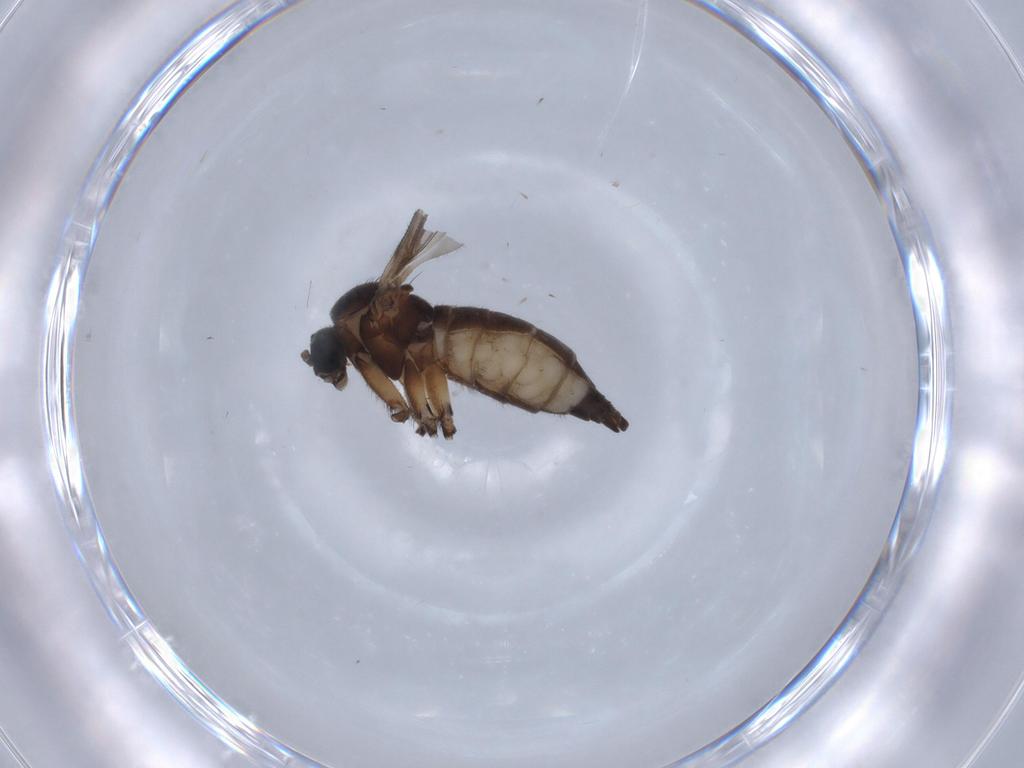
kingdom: Animalia
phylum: Arthropoda
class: Insecta
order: Diptera
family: Sciaridae
